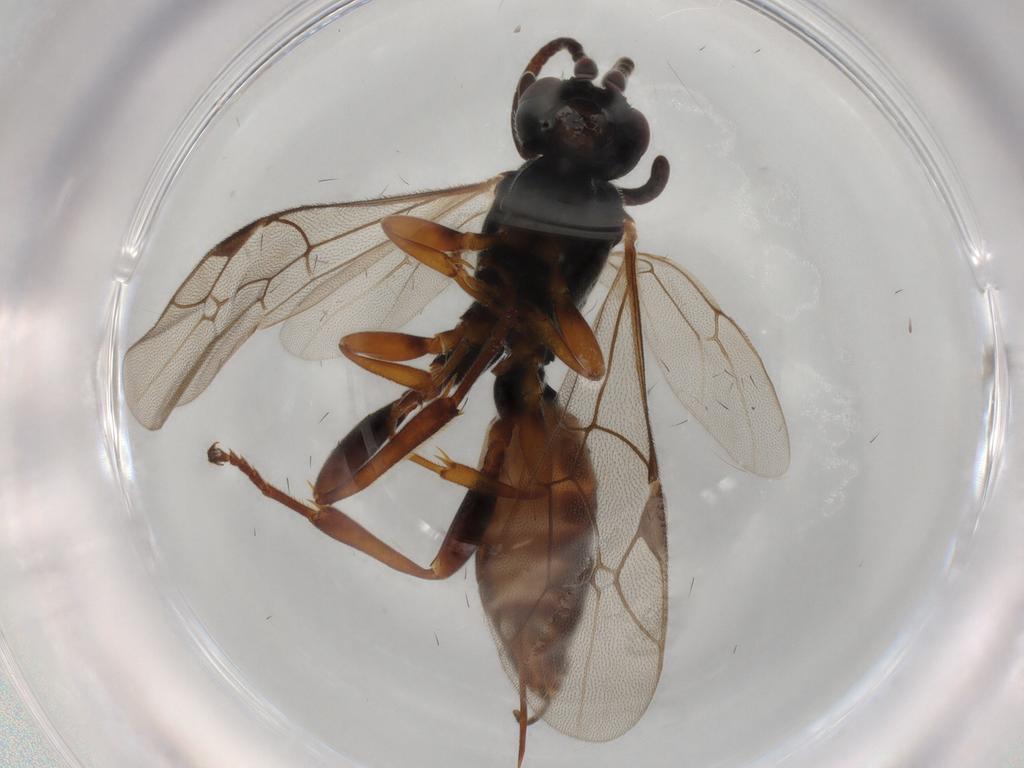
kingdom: Animalia
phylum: Arthropoda
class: Insecta
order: Hymenoptera
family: Ichneumonidae
